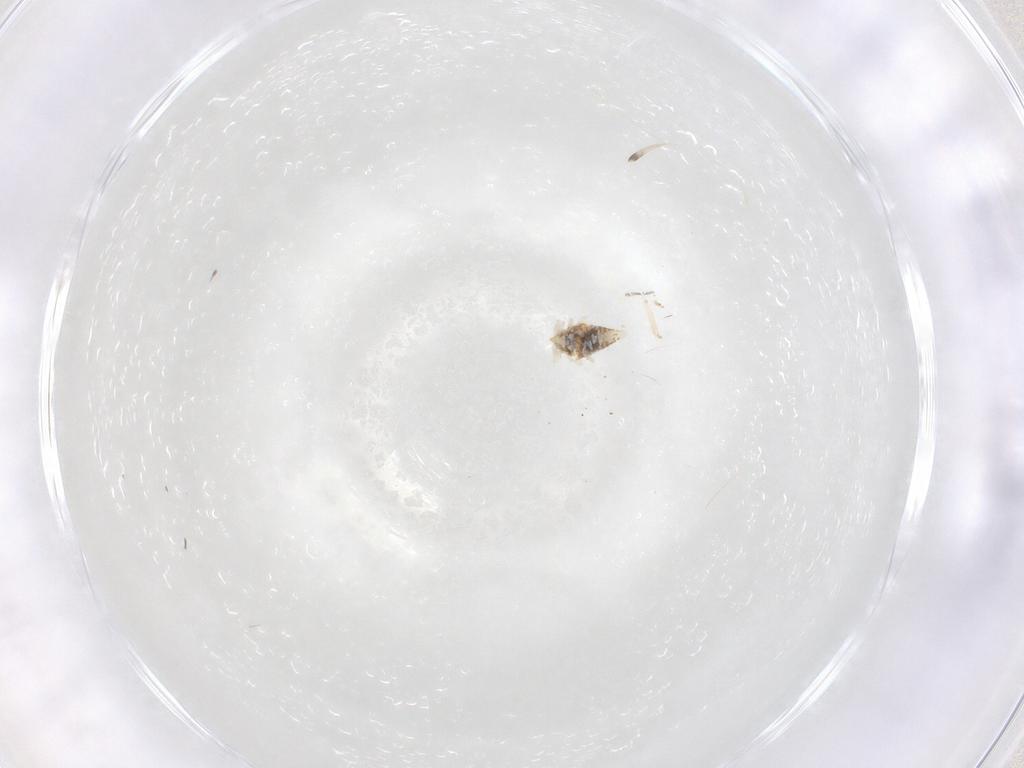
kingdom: Animalia
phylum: Arthropoda
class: Arachnida
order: Trombidiformes
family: Anystidae
